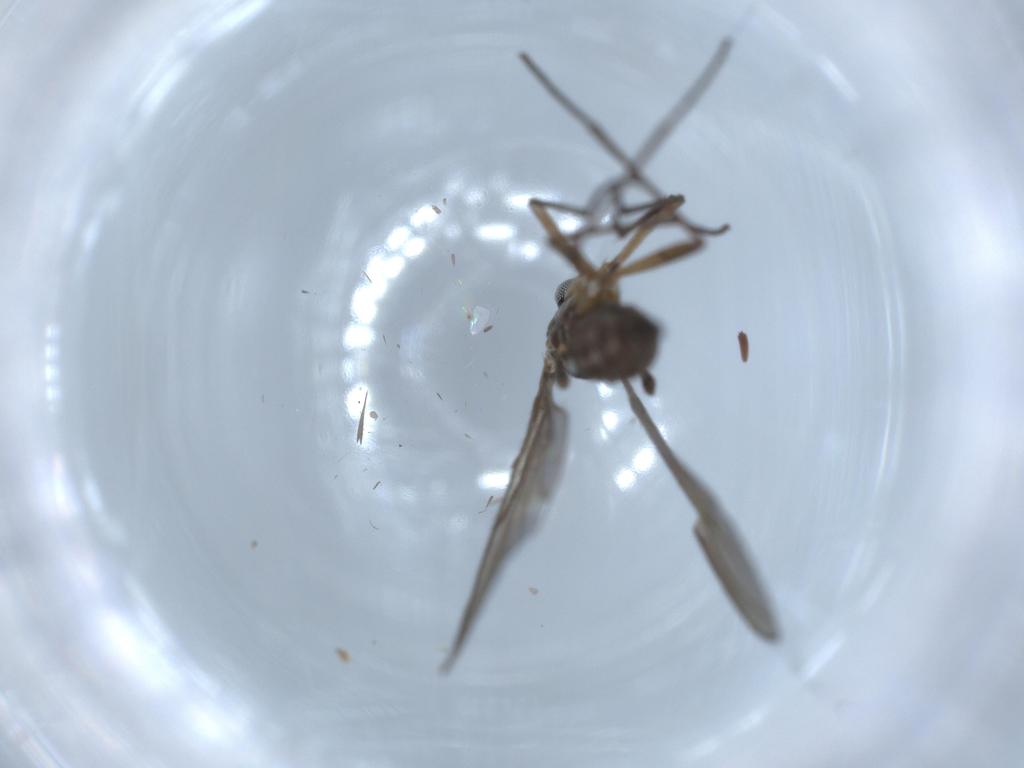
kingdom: Animalia
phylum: Arthropoda
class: Insecta
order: Diptera
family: Sciaridae
